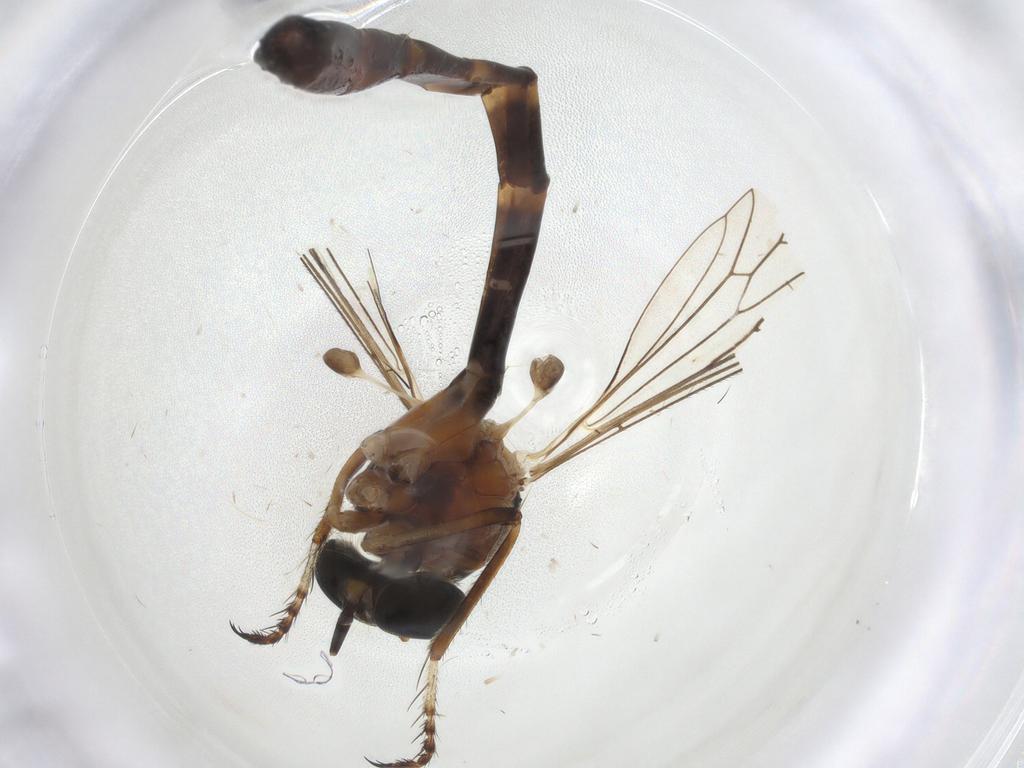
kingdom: Animalia
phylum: Arthropoda
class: Insecta
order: Diptera
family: Chironomidae
